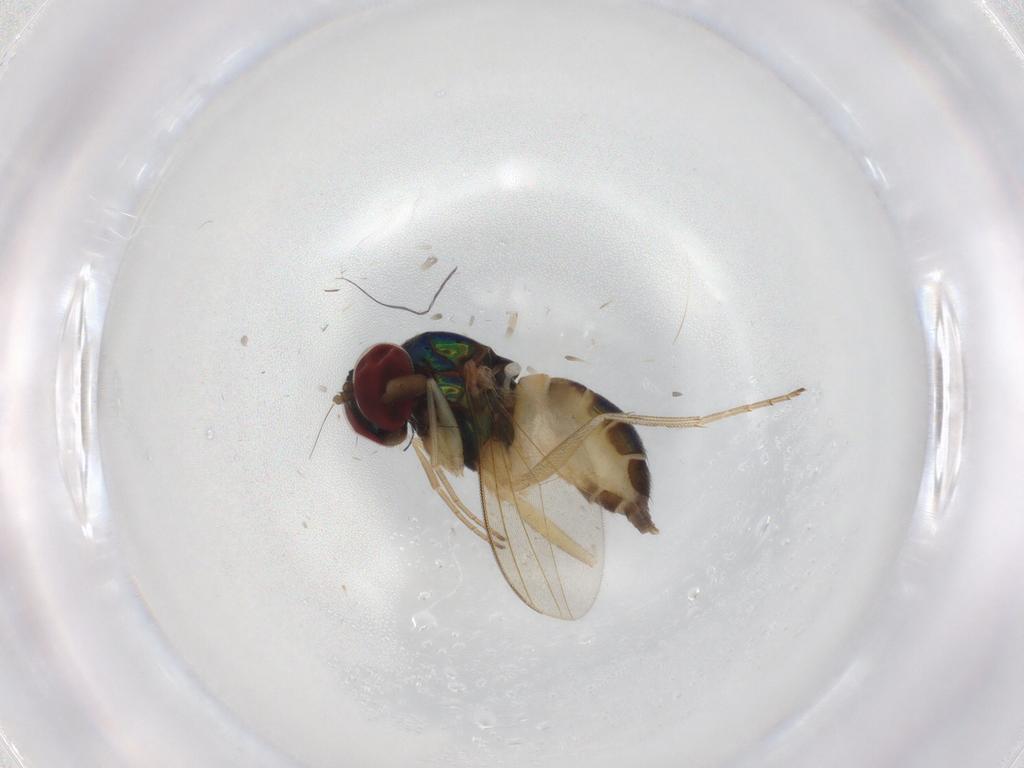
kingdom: Animalia
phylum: Arthropoda
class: Insecta
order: Diptera
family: Dolichopodidae
